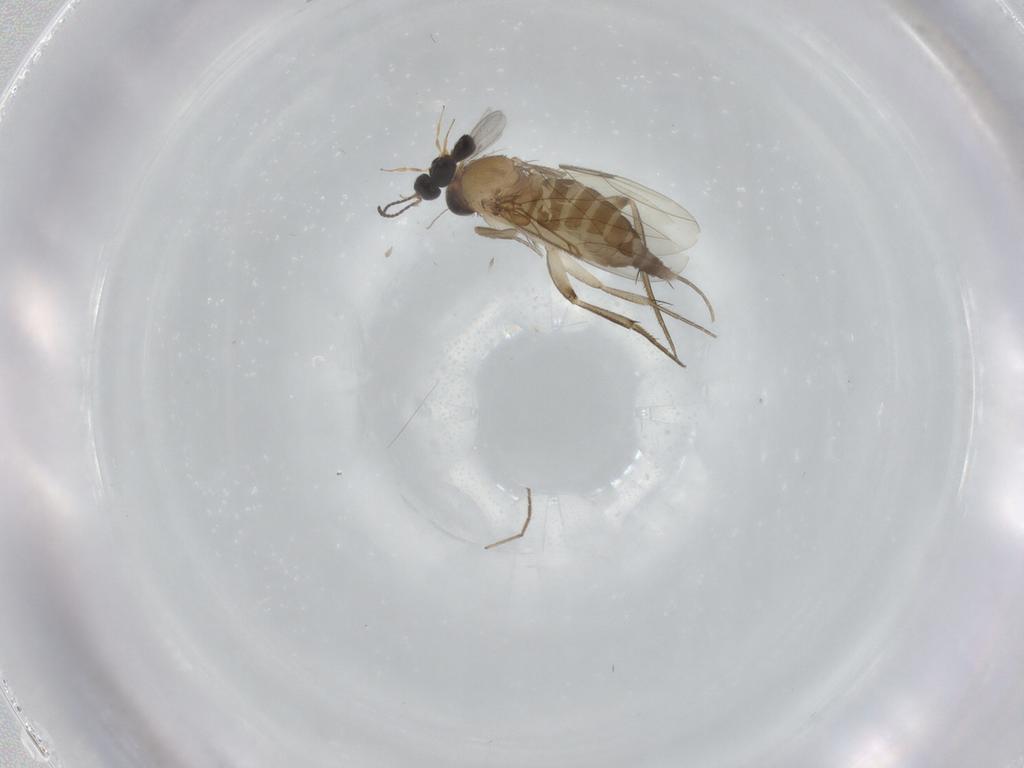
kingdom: Animalia
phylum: Arthropoda
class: Insecta
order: Diptera
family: Phoridae
